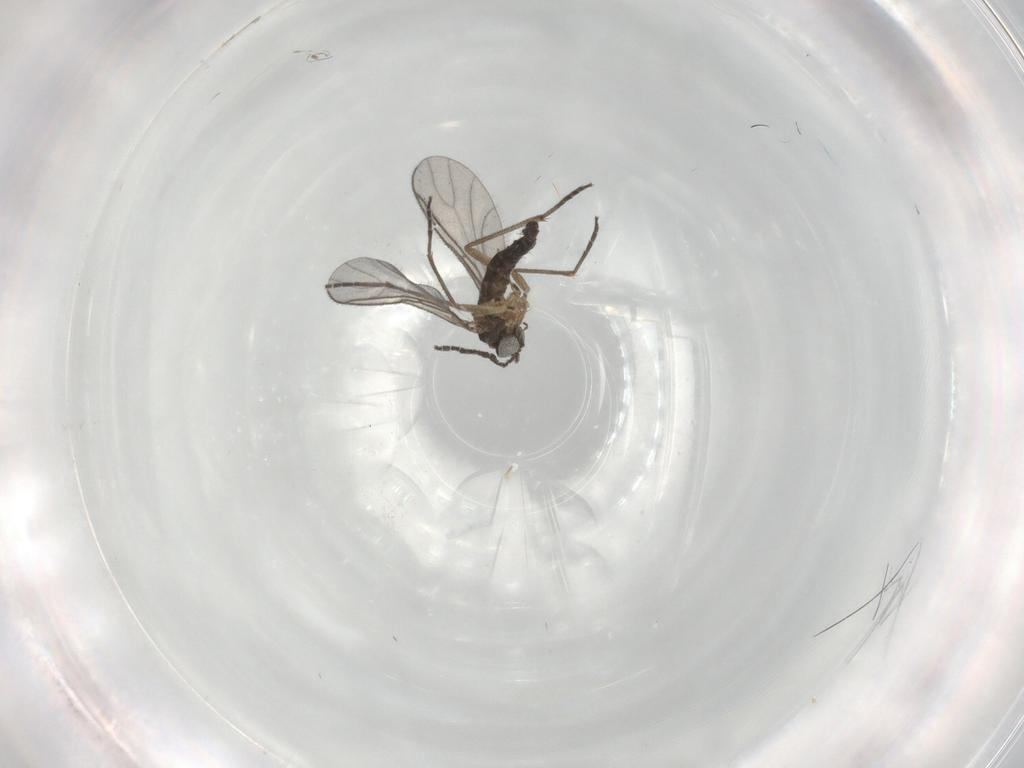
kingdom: Animalia
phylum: Arthropoda
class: Insecta
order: Diptera
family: Sciaridae
